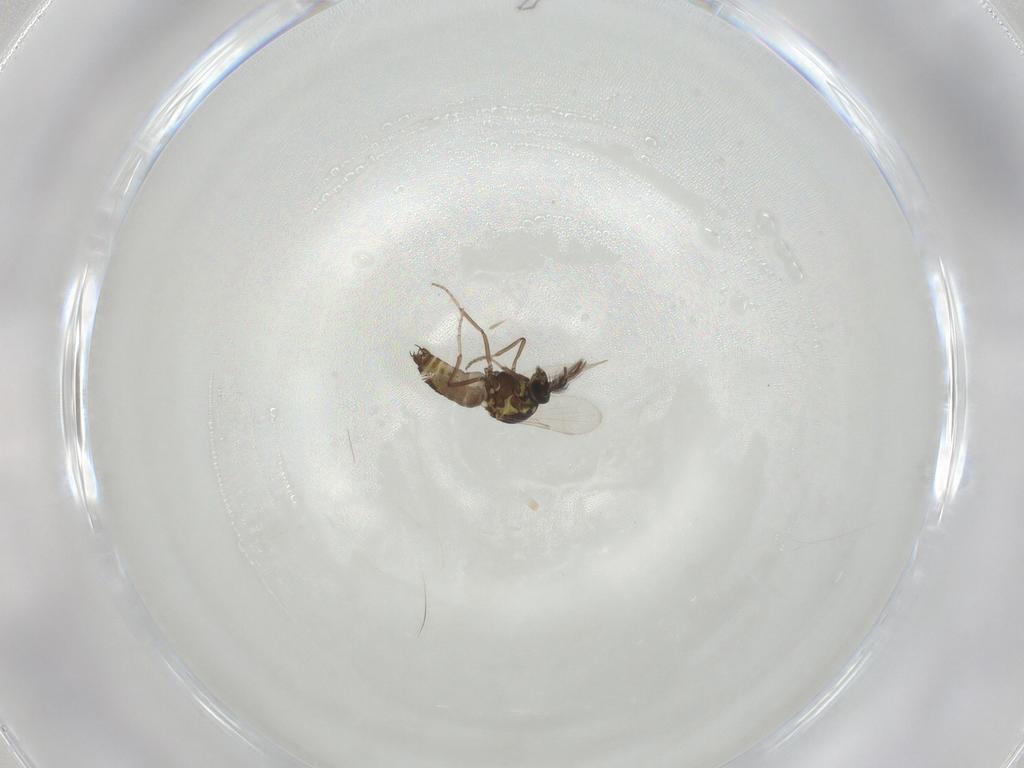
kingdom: Animalia
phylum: Arthropoda
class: Insecta
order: Diptera
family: Ceratopogonidae
